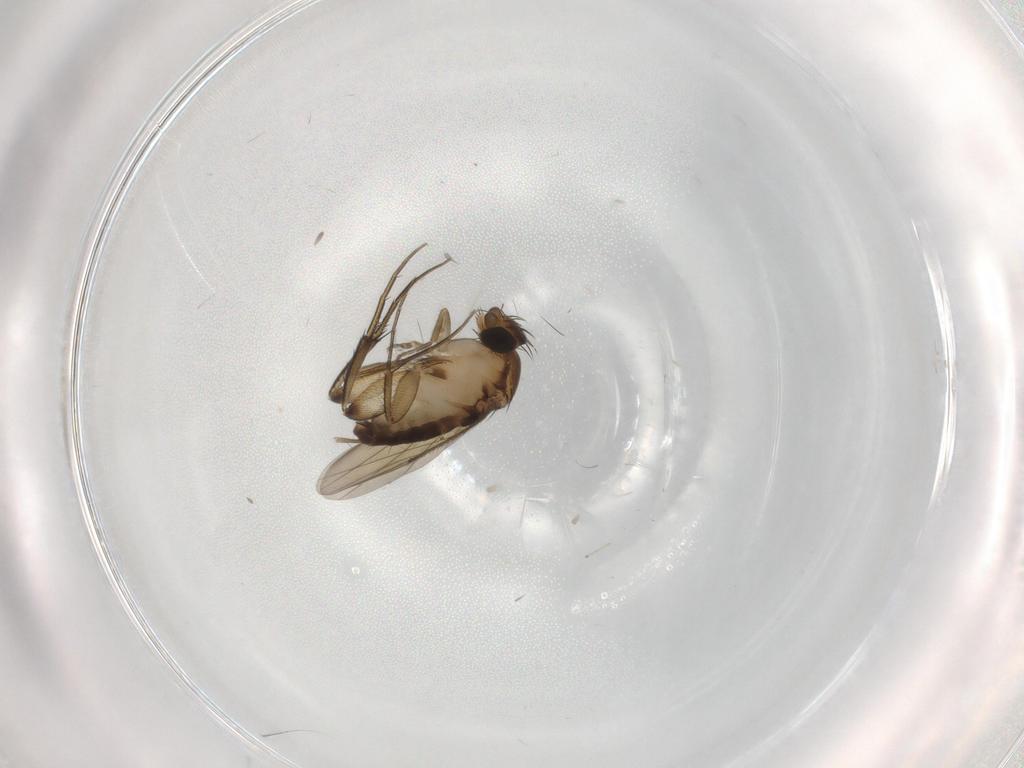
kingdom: Animalia
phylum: Arthropoda
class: Insecta
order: Diptera
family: Phoridae
